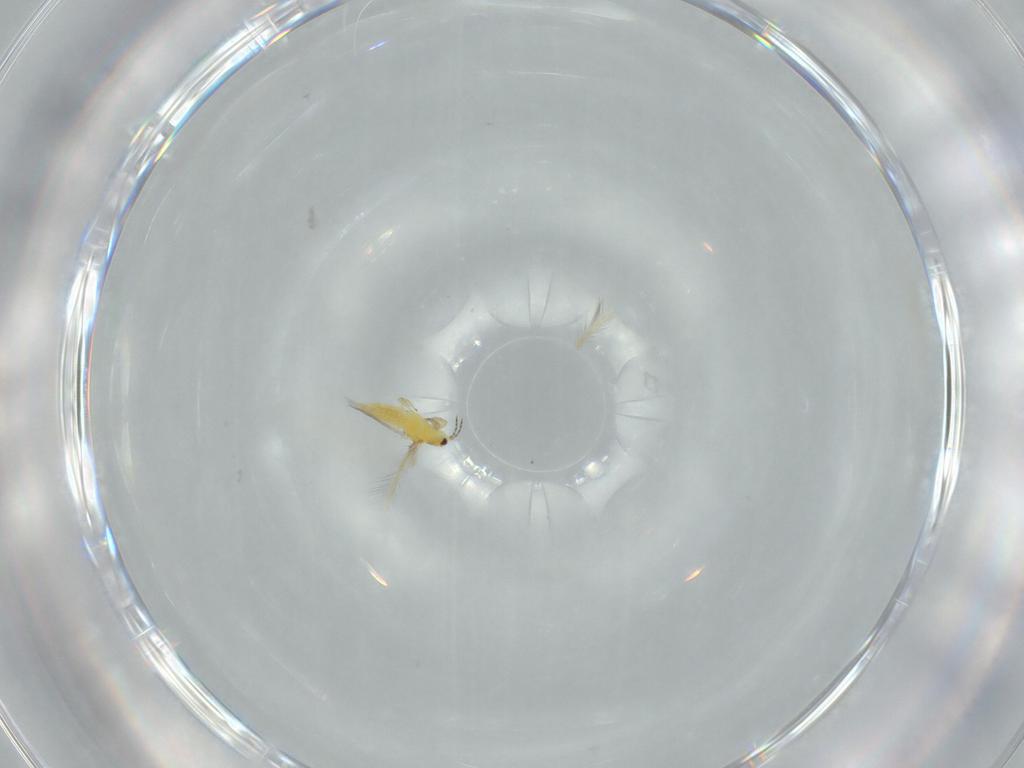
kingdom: Animalia
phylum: Arthropoda
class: Insecta
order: Thysanoptera
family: Thripidae
